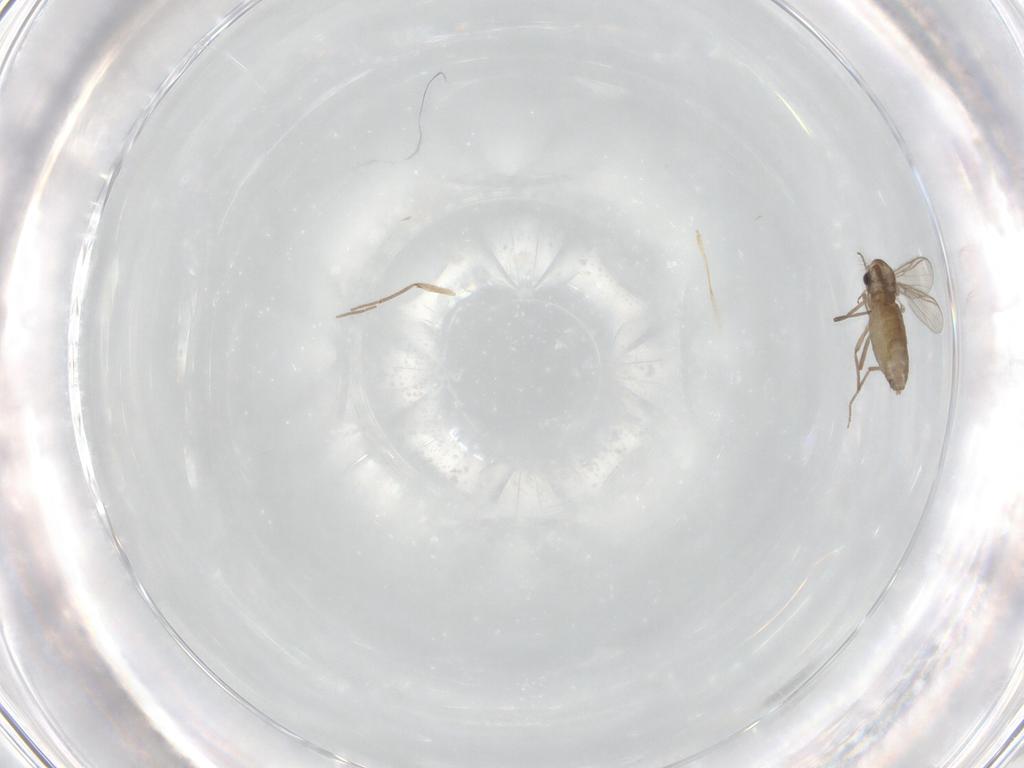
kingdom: Animalia
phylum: Arthropoda
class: Insecta
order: Diptera
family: Chironomidae
